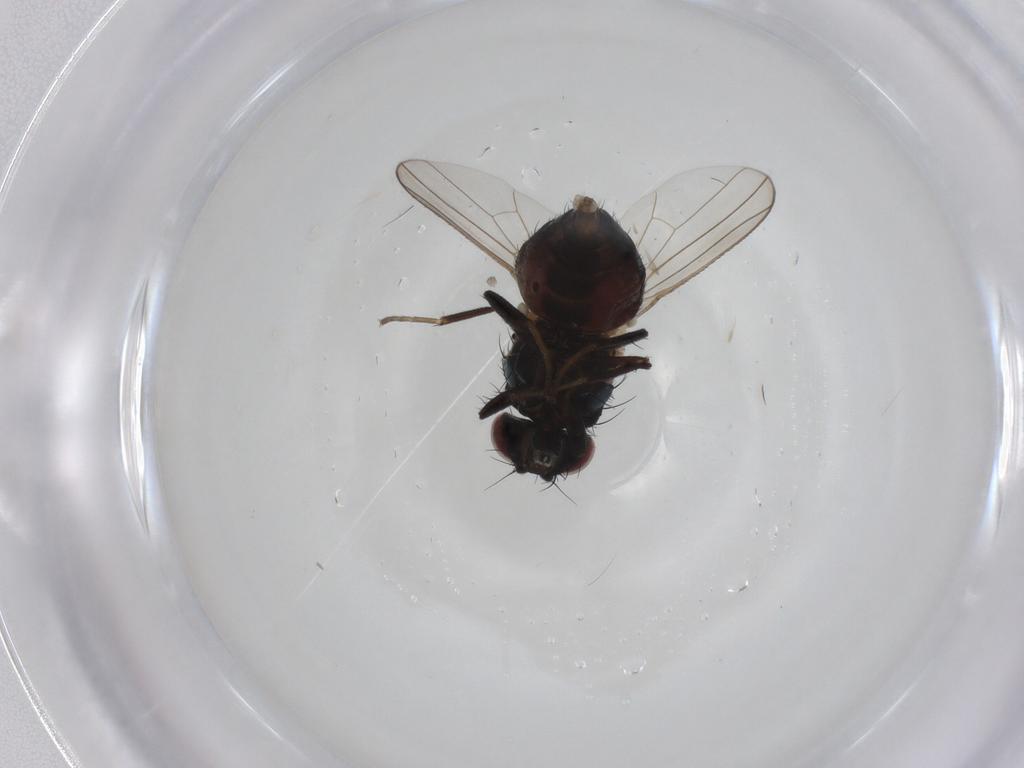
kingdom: Animalia
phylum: Arthropoda
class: Insecta
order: Diptera
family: Carnidae
